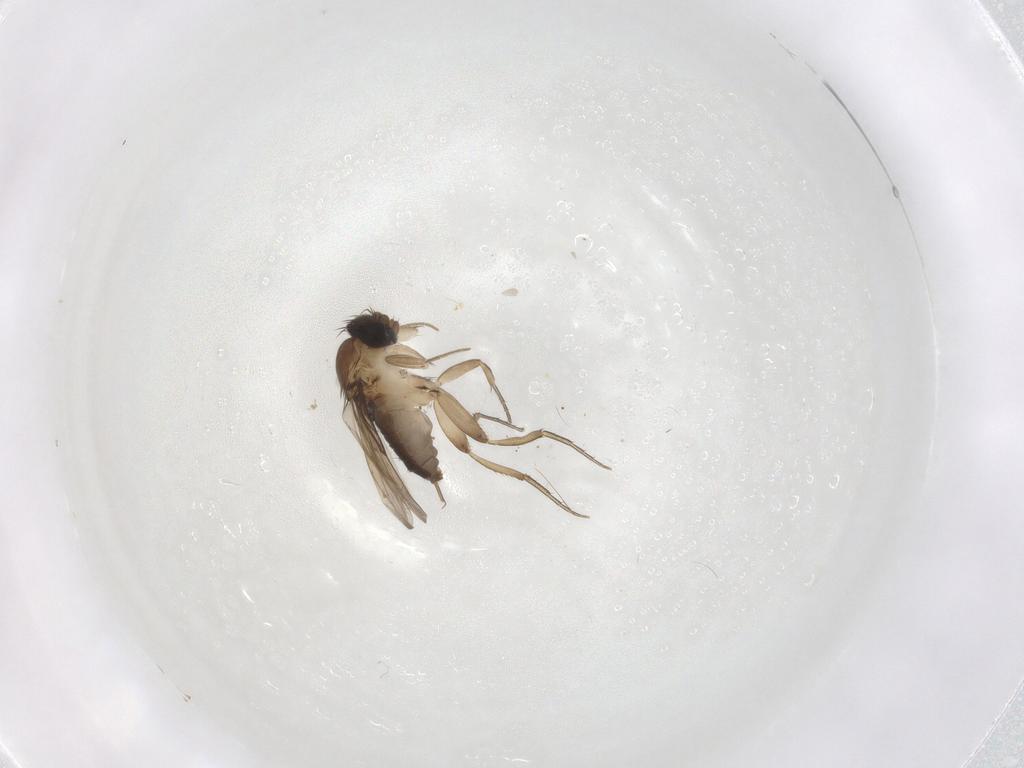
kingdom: Animalia
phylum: Arthropoda
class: Insecta
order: Diptera
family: Phoridae
